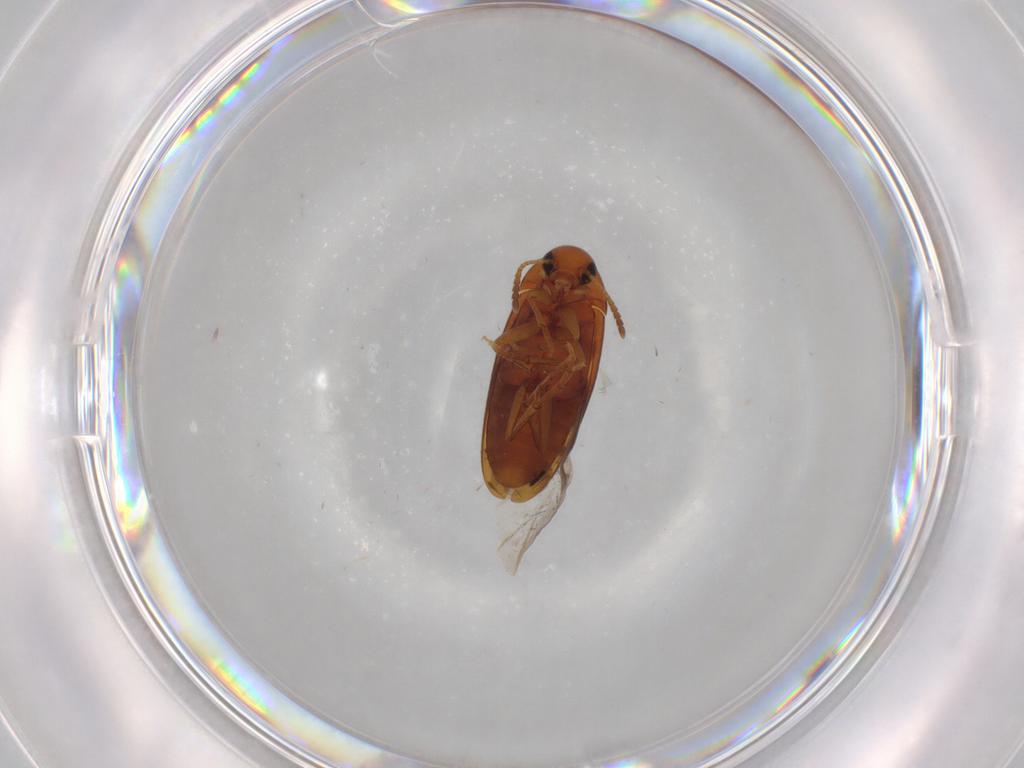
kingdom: Animalia
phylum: Arthropoda
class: Insecta
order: Coleoptera
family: Scraptiidae
